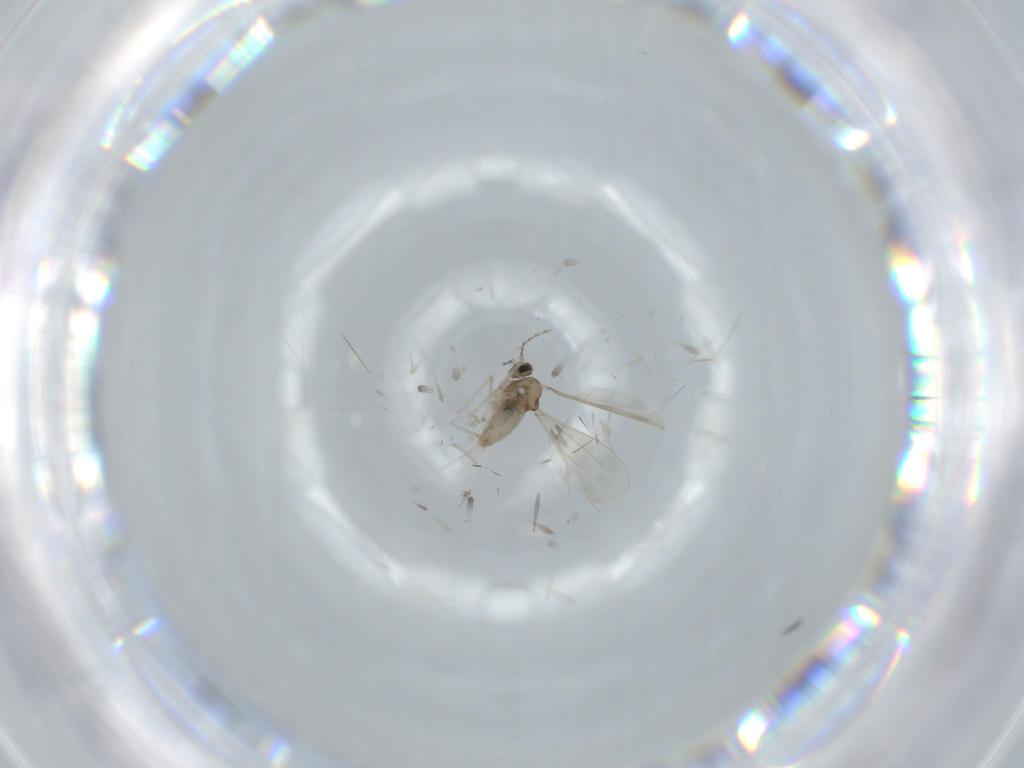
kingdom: Animalia
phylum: Arthropoda
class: Insecta
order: Diptera
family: Cecidomyiidae
